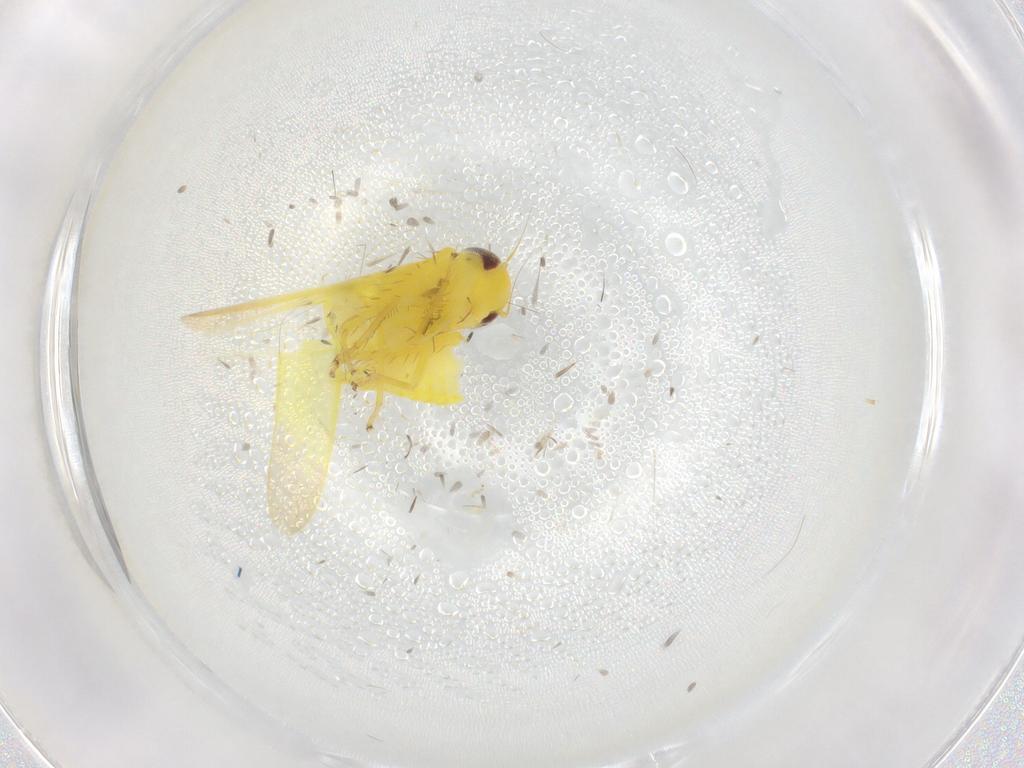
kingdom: Animalia
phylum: Arthropoda
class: Insecta
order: Hemiptera
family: Cicadellidae
